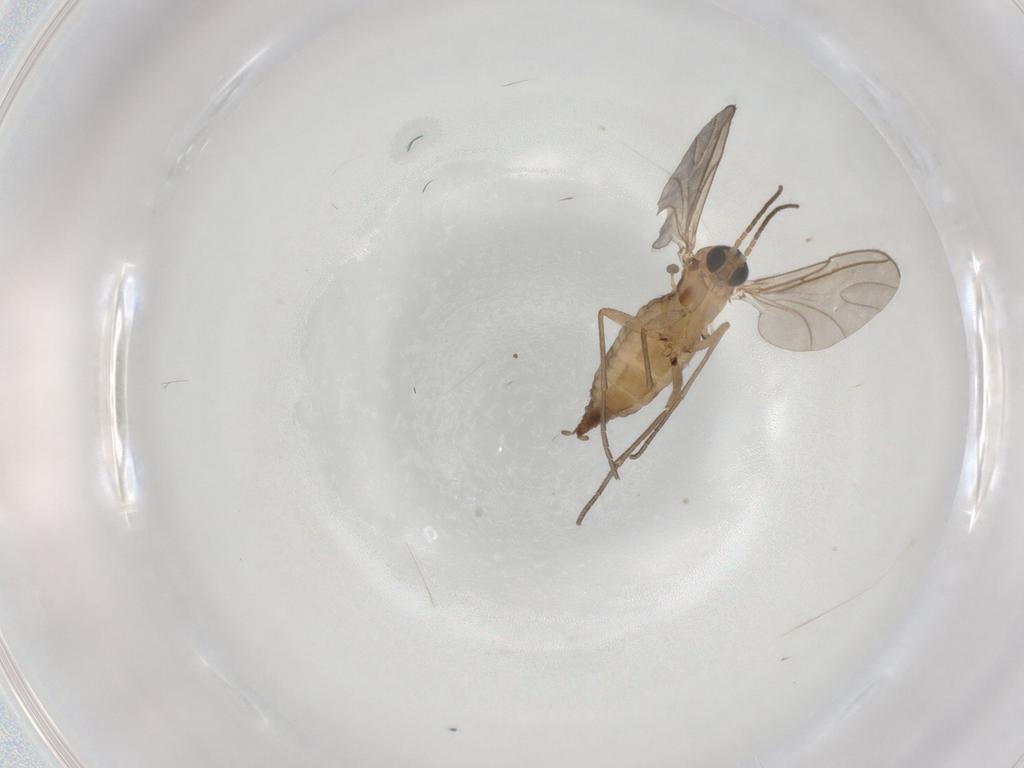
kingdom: Animalia
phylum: Arthropoda
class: Insecta
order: Diptera
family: Sciaridae
